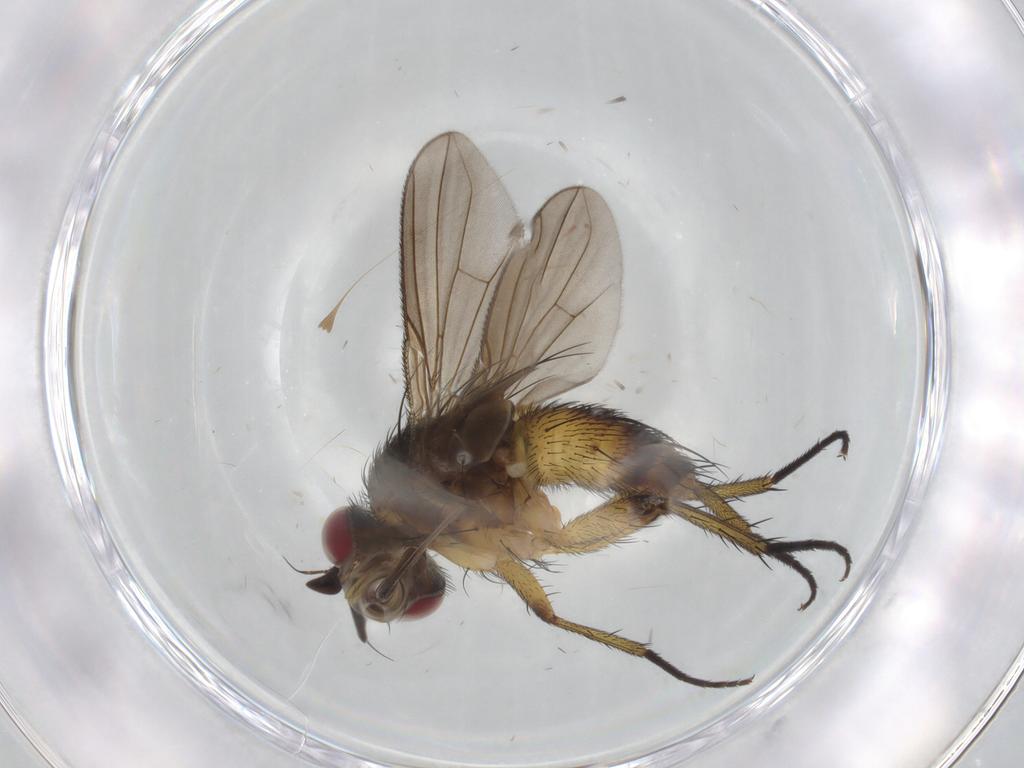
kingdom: Animalia
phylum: Arthropoda
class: Insecta
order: Diptera
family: Tachinidae
